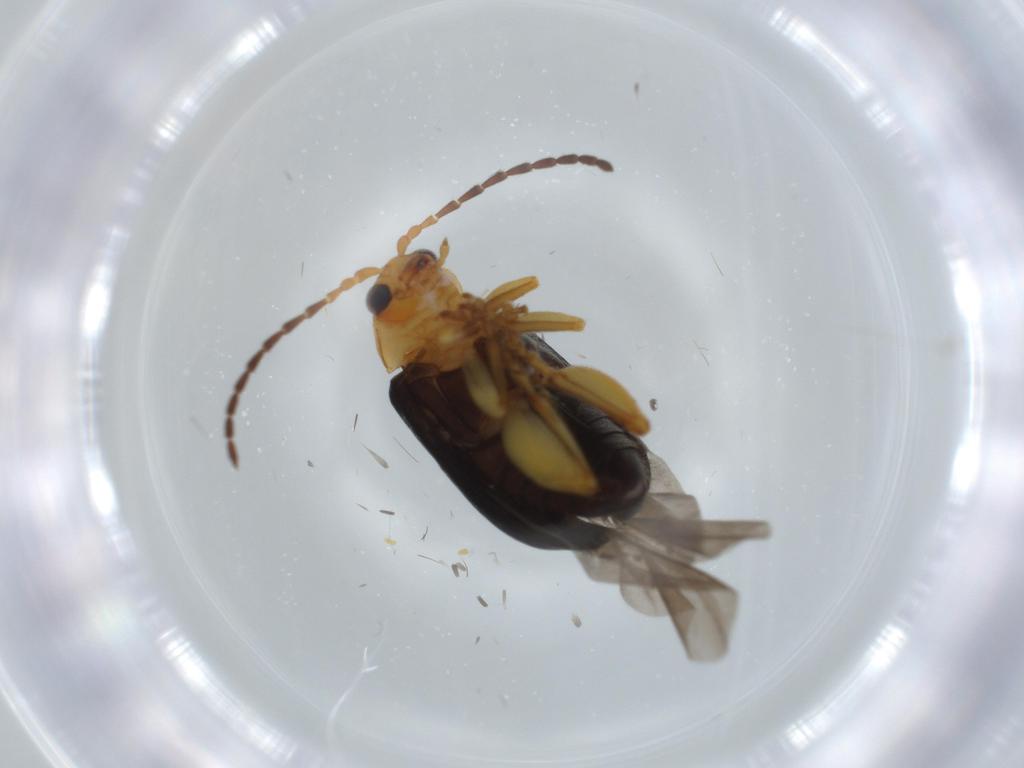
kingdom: Animalia
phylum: Arthropoda
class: Insecta
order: Coleoptera
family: Chrysomelidae
